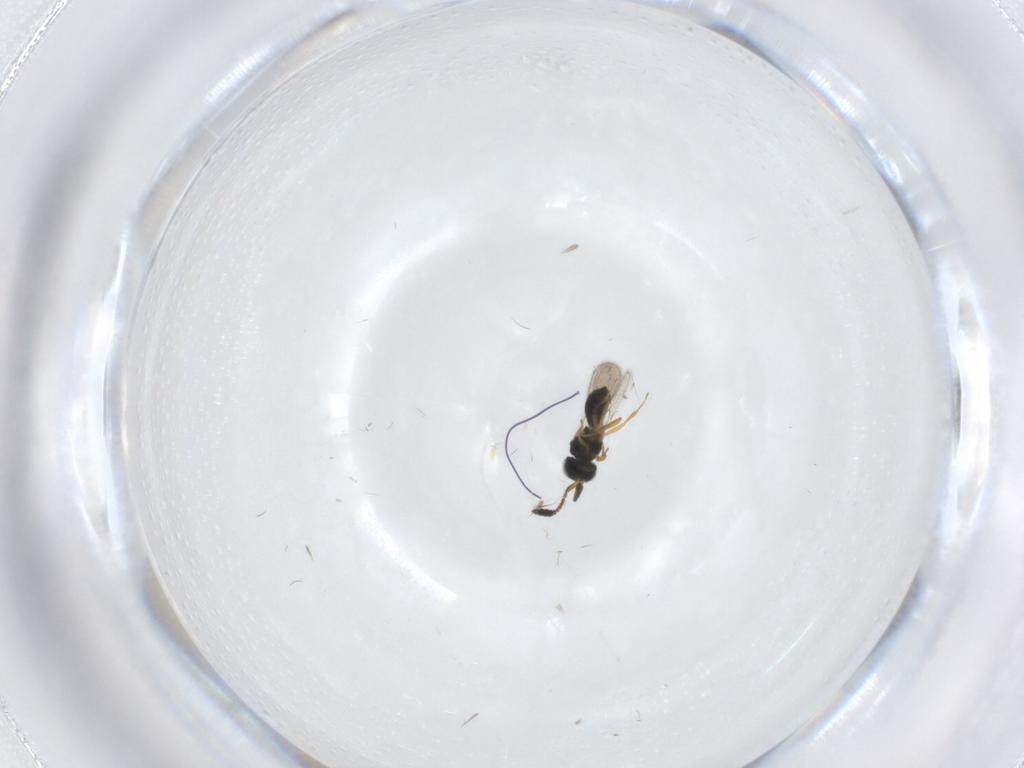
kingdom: Animalia
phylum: Arthropoda
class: Insecta
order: Hymenoptera
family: Scelionidae
